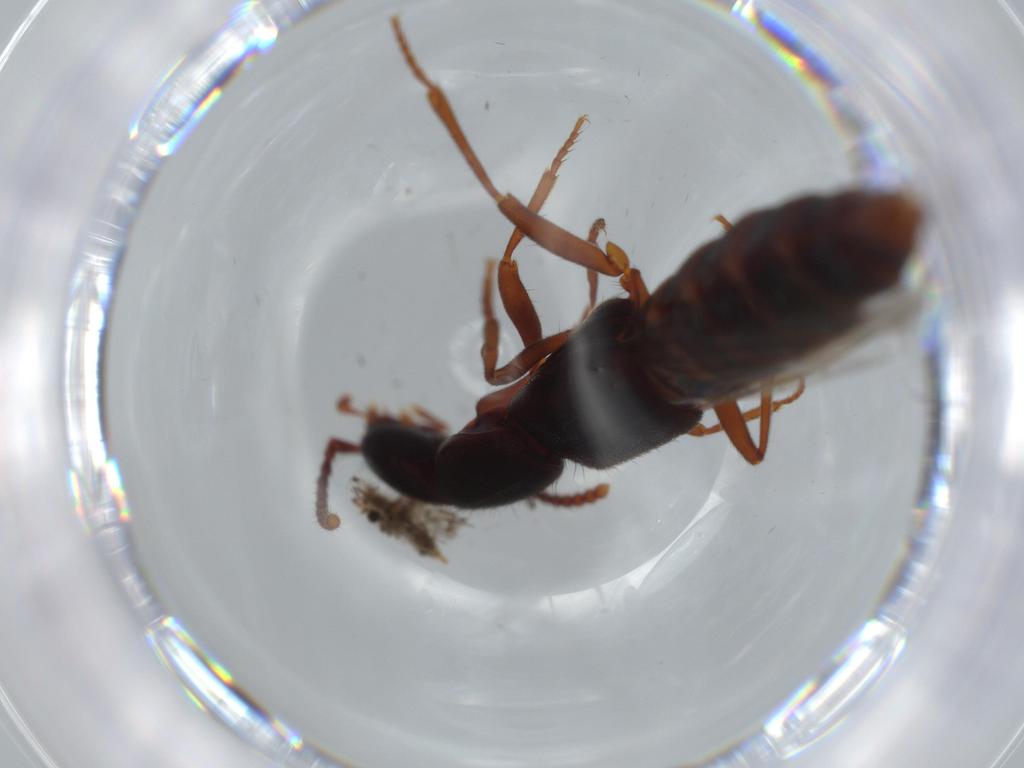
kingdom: Animalia
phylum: Arthropoda
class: Insecta
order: Coleoptera
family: Staphylinidae
